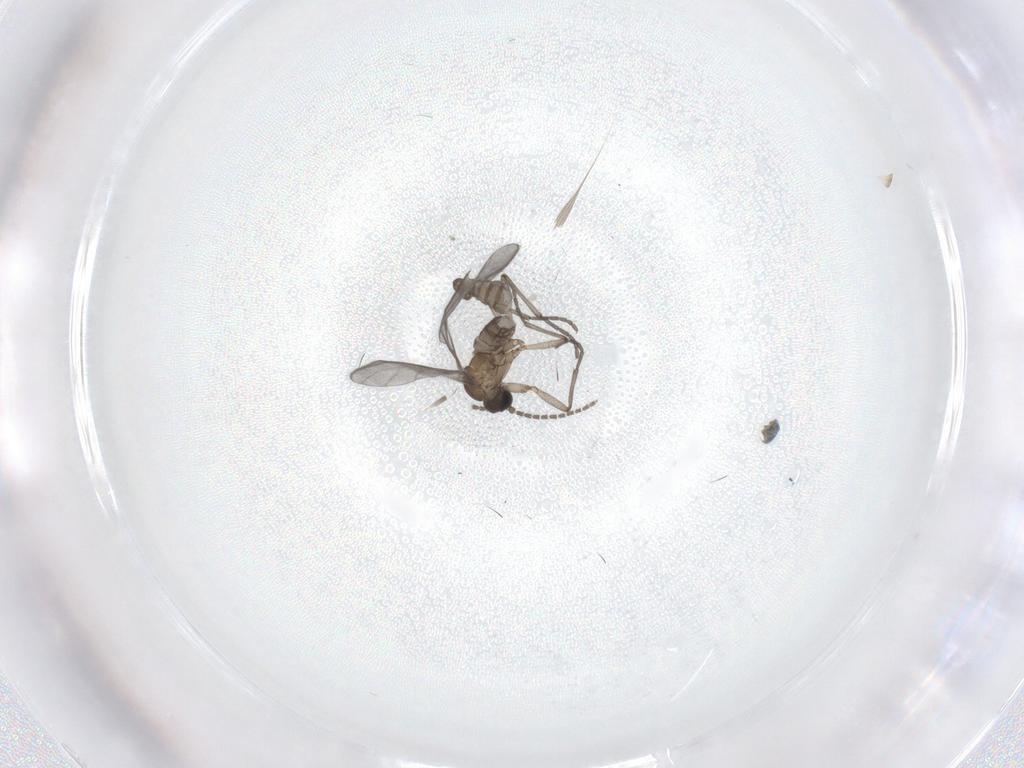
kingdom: Animalia
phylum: Arthropoda
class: Insecta
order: Diptera
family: Sciaridae
